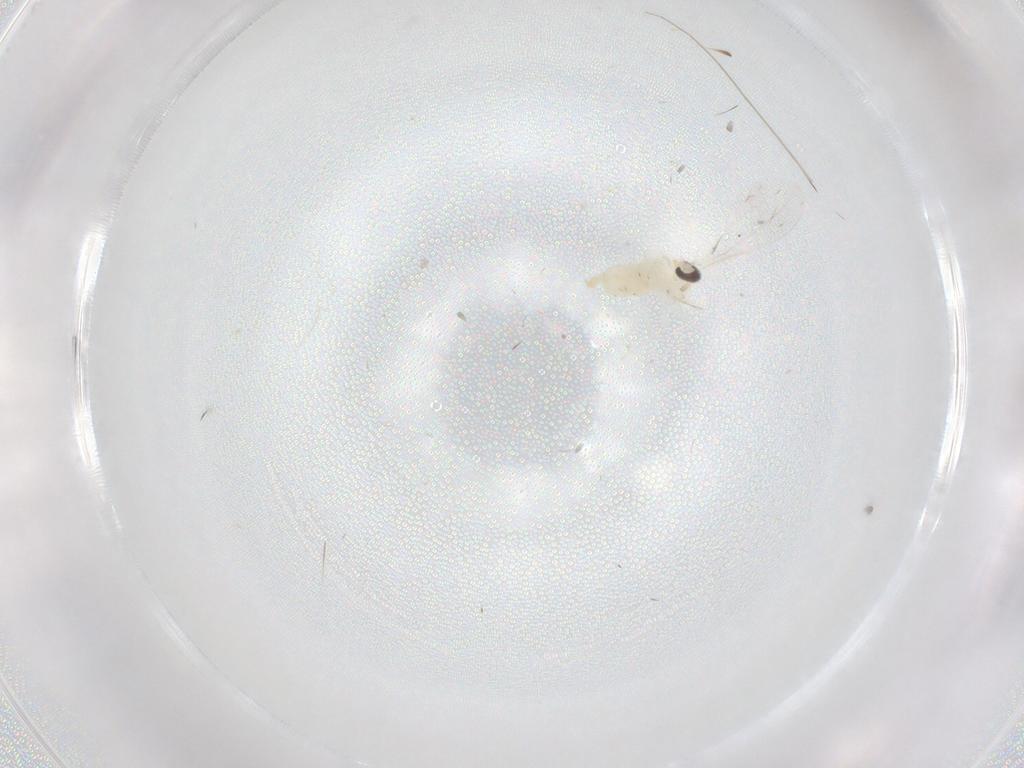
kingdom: Animalia
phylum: Arthropoda
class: Insecta
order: Diptera
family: Cecidomyiidae
